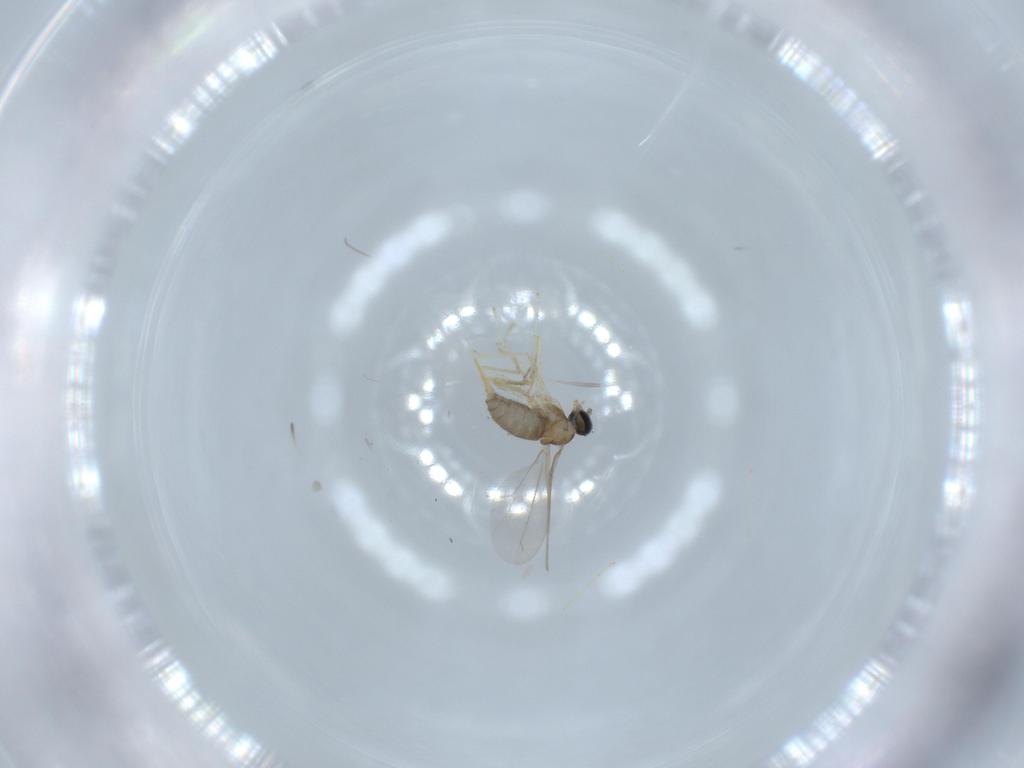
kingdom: Animalia
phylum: Arthropoda
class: Insecta
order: Diptera
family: Cecidomyiidae
